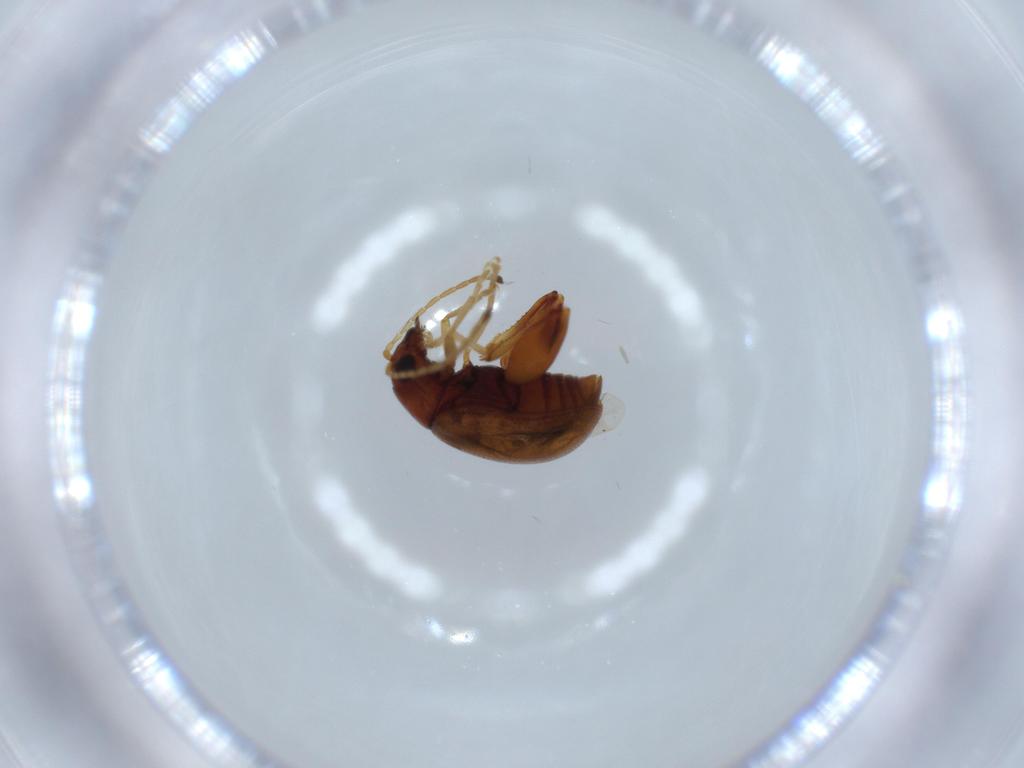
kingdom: Animalia
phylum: Arthropoda
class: Insecta
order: Coleoptera
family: Chrysomelidae
